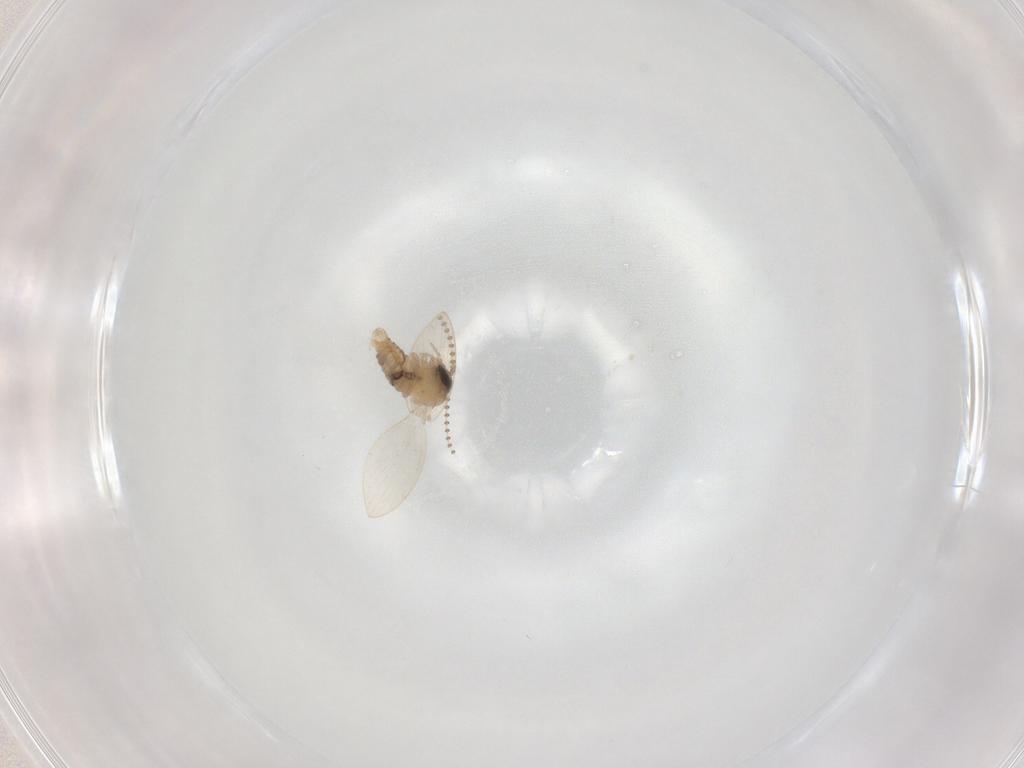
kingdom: Animalia
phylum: Arthropoda
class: Insecta
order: Diptera
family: Psychodidae
